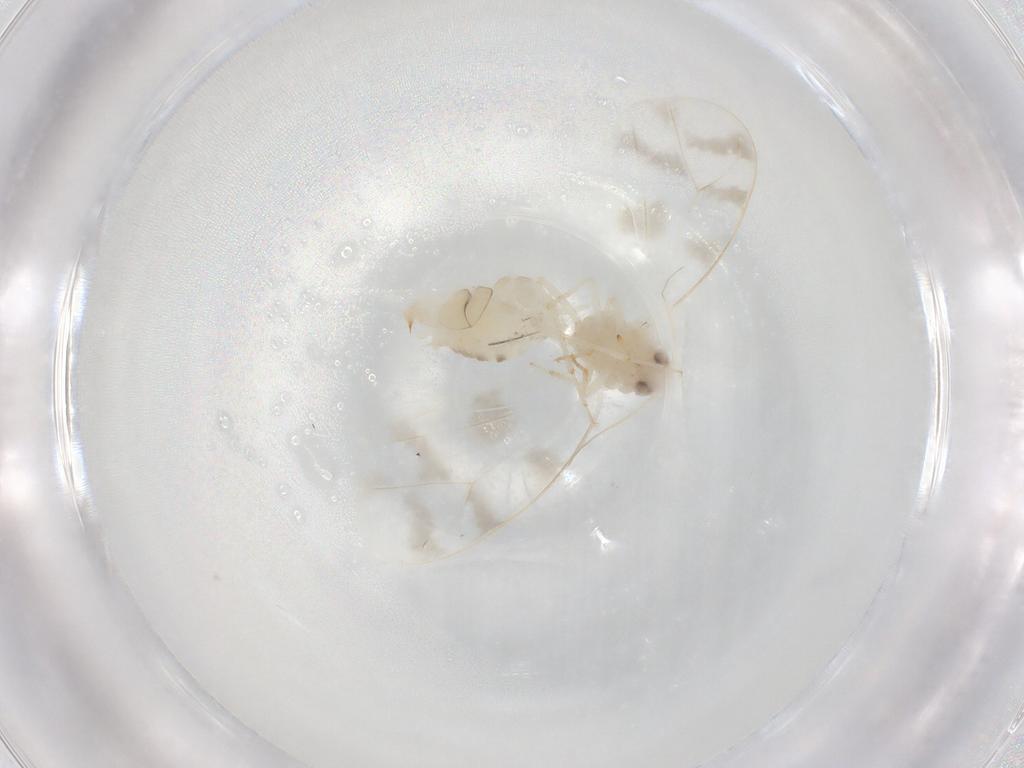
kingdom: Animalia
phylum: Arthropoda
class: Insecta
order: Hemiptera
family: Aleyrodidae
